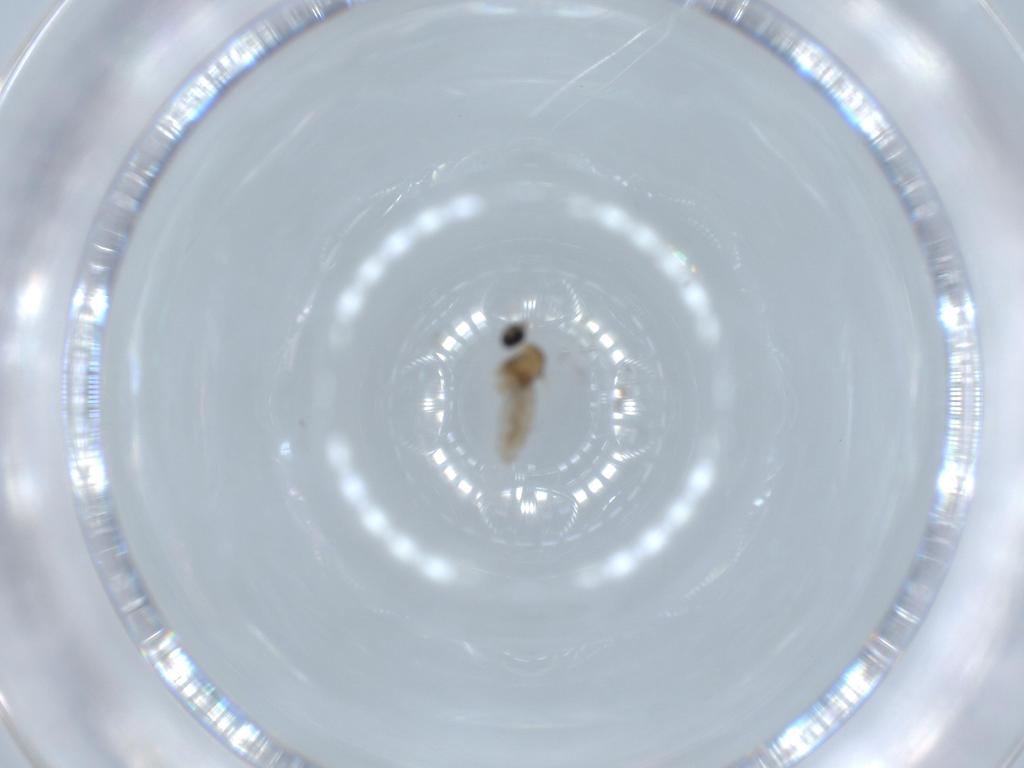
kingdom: Animalia
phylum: Arthropoda
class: Insecta
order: Diptera
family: Cecidomyiidae
